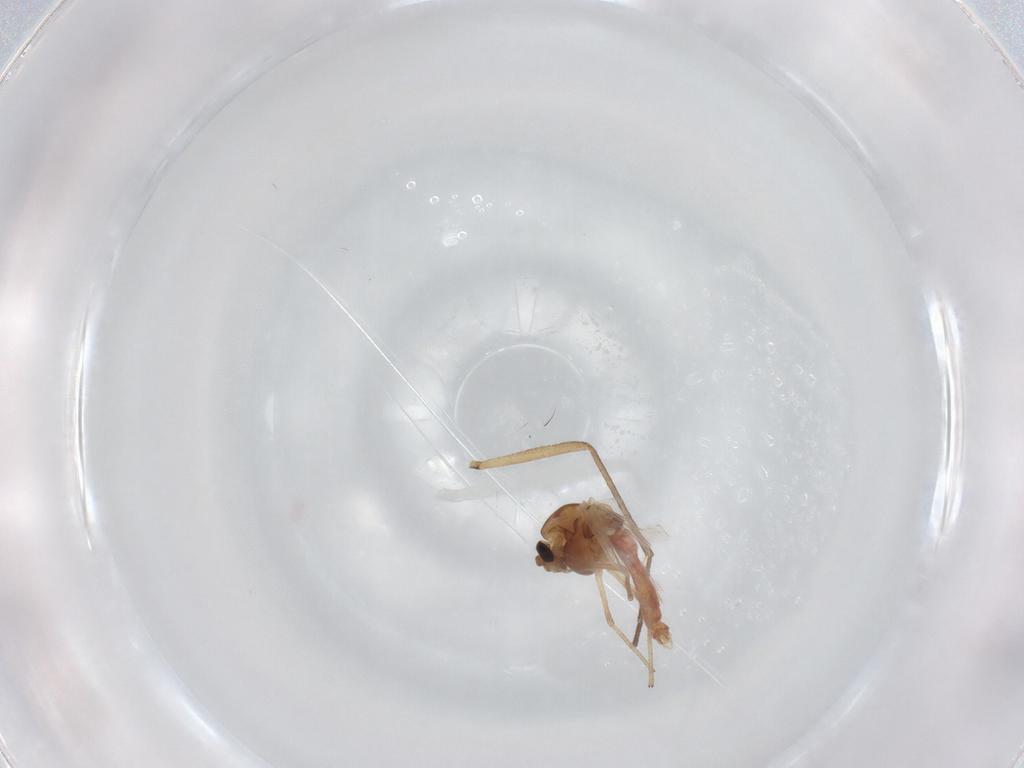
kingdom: Animalia
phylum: Arthropoda
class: Insecta
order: Diptera
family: Chironomidae
